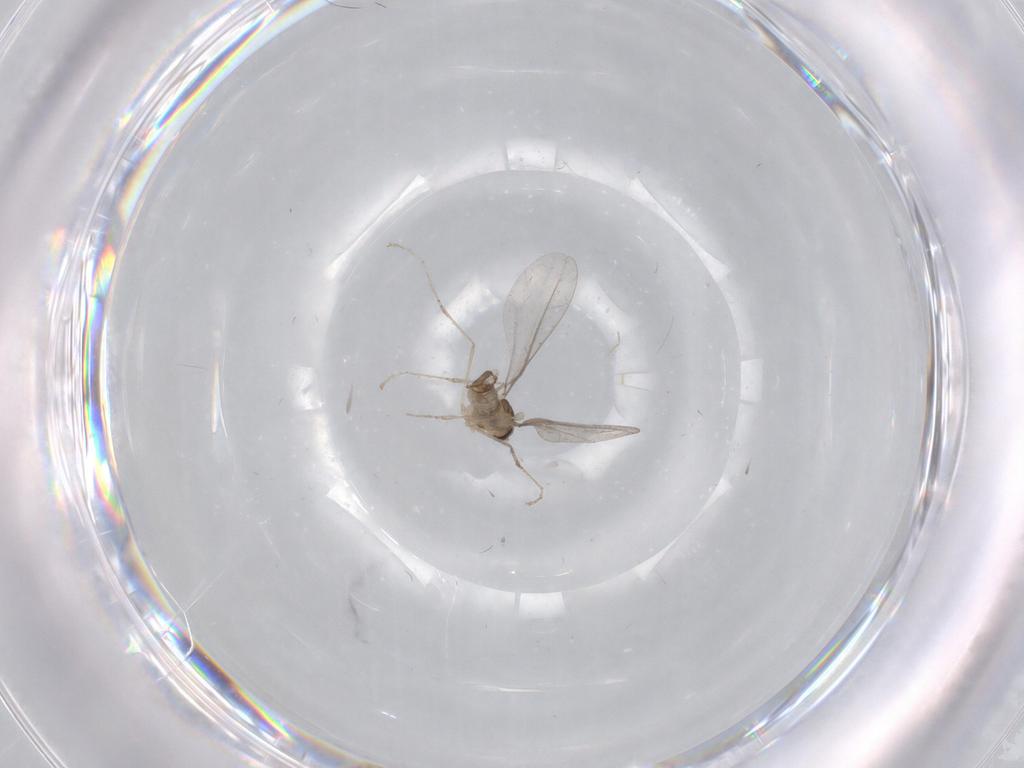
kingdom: Animalia
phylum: Arthropoda
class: Insecta
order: Diptera
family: Cecidomyiidae
